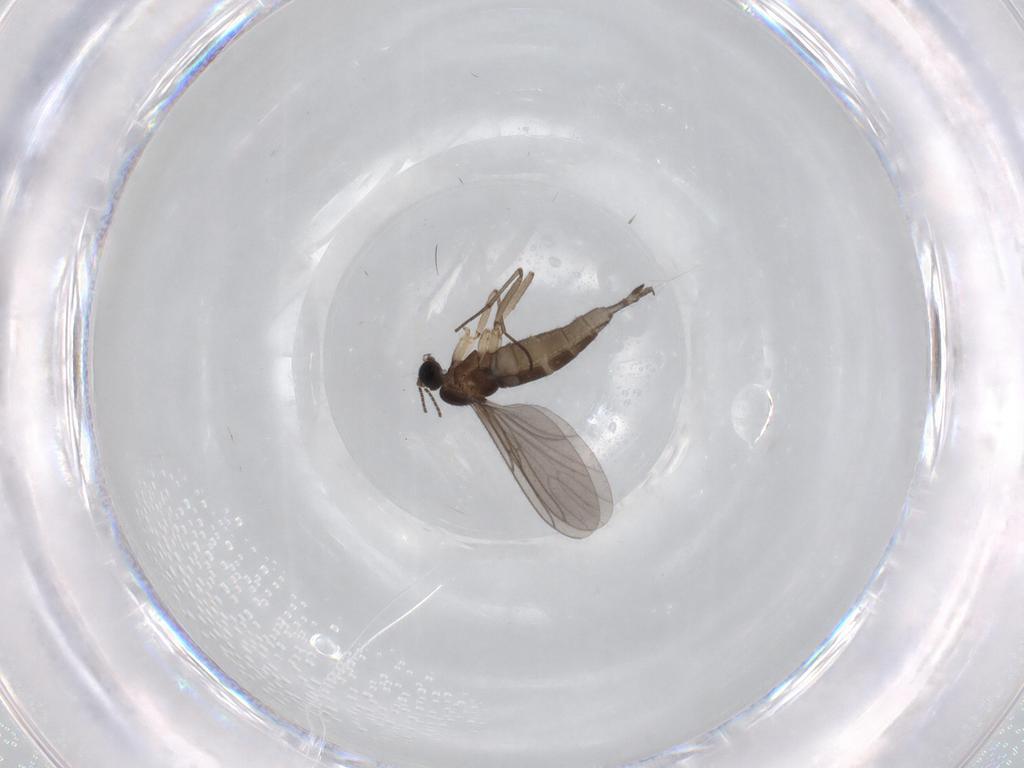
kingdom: Animalia
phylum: Arthropoda
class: Insecta
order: Diptera
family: Sciaridae
